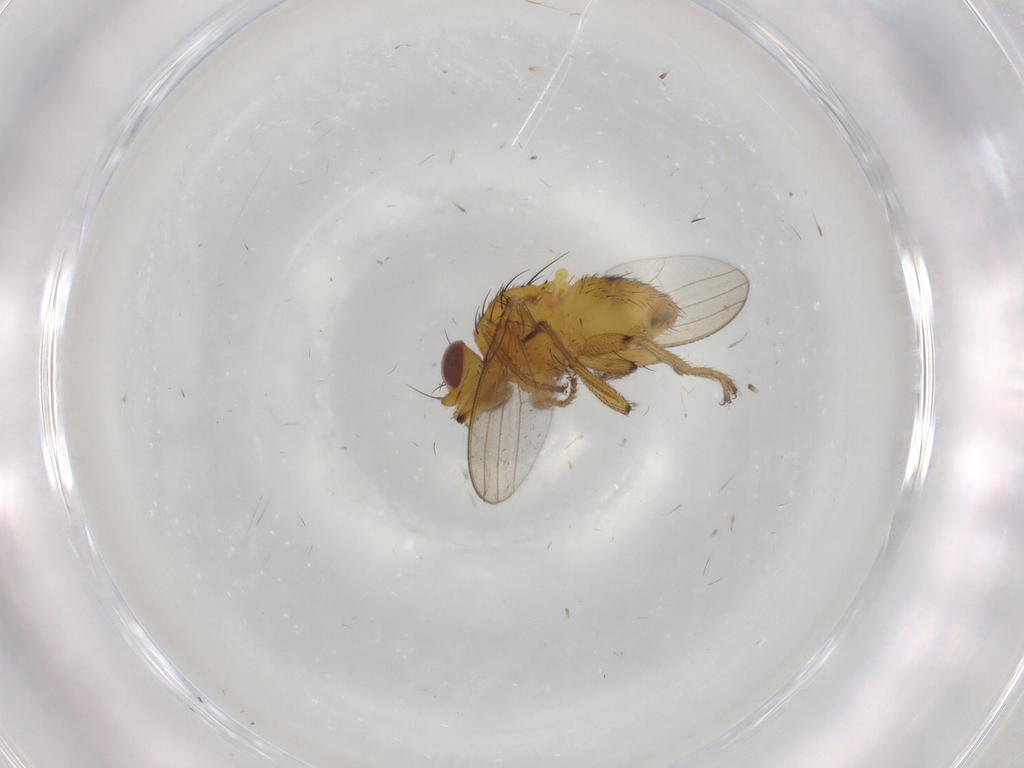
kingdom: Animalia
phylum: Arthropoda
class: Insecta
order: Diptera
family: Milichiidae
